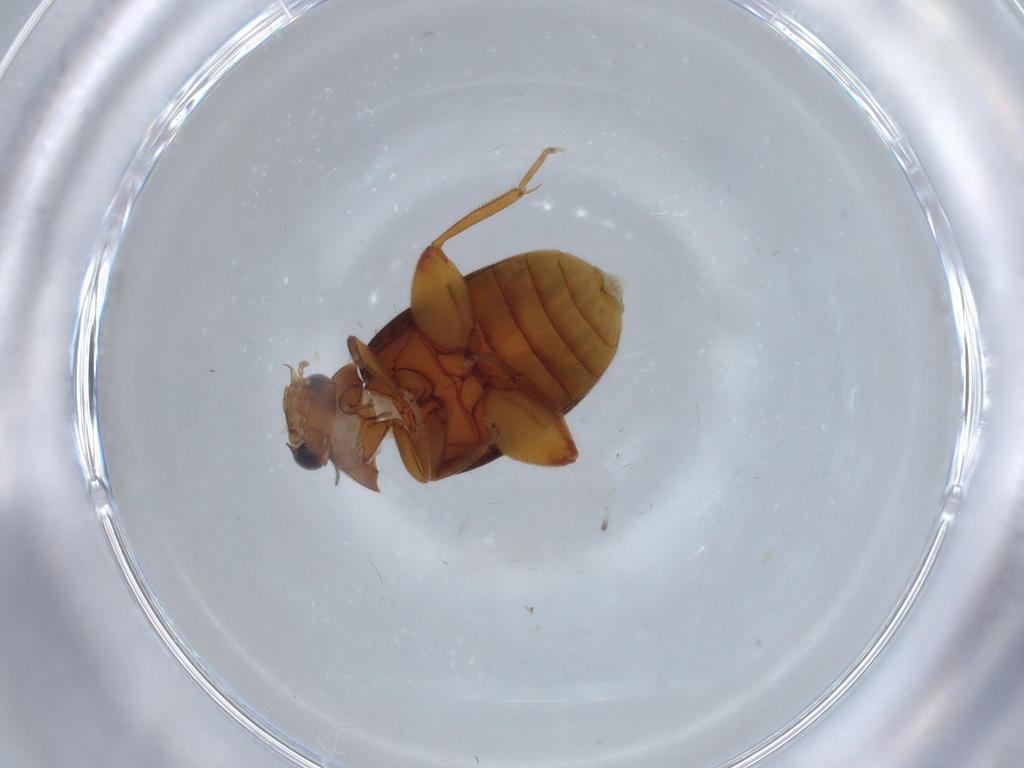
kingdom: Animalia
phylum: Arthropoda
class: Insecta
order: Coleoptera
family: Scirtidae
